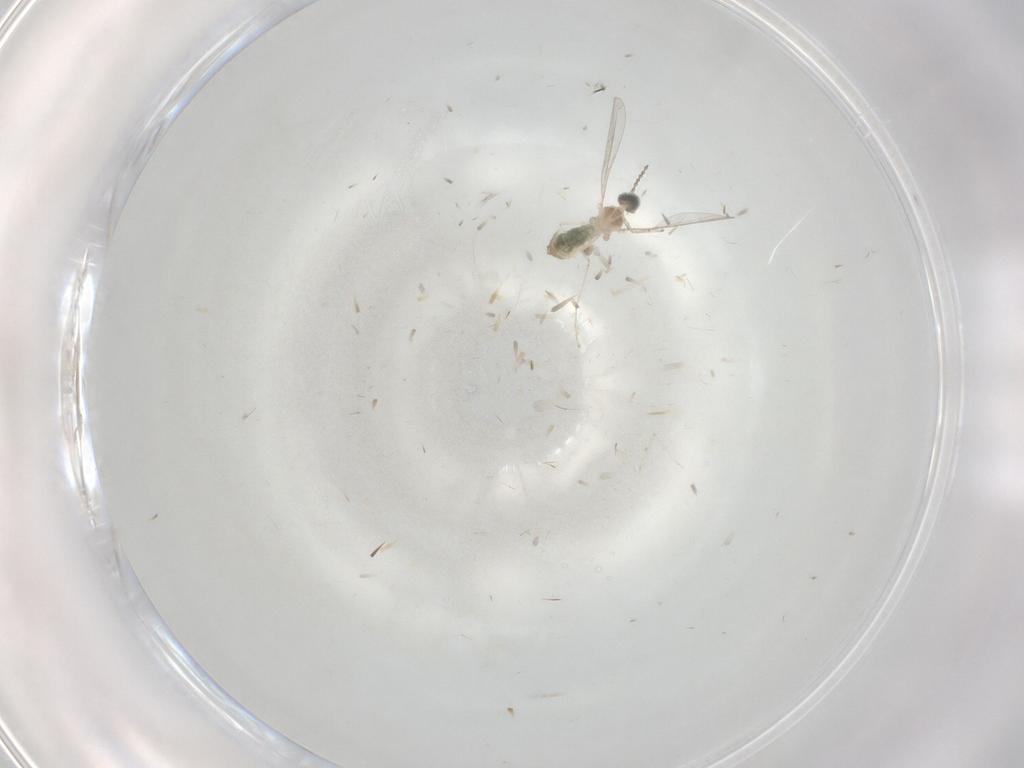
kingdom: Animalia
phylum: Arthropoda
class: Insecta
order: Diptera
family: Cecidomyiidae
